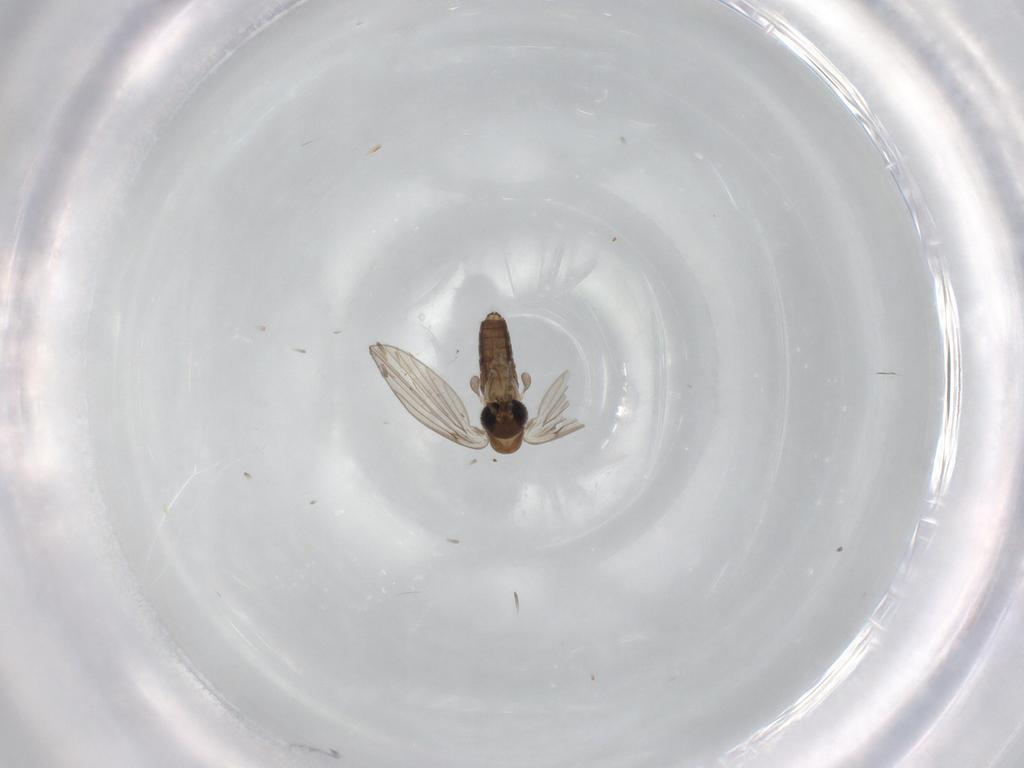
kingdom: Animalia
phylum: Arthropoda
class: Insecta
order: Diptera
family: Psychodidae
